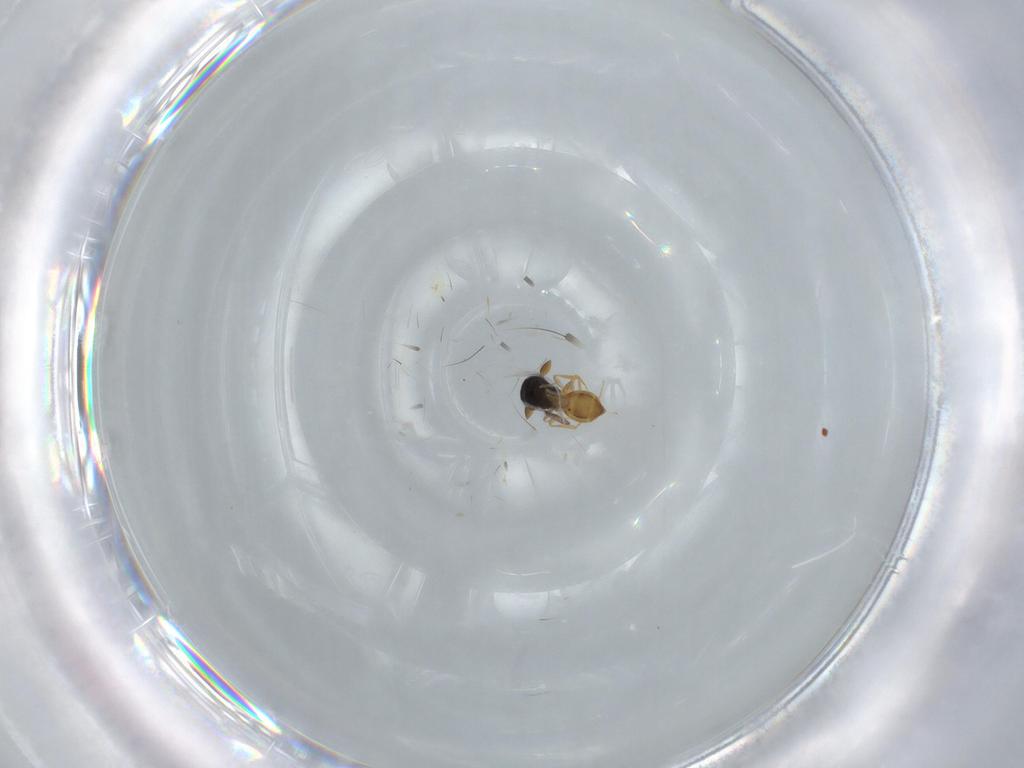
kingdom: Animalia
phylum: Arthropoda
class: Insecta
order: Hymenoptera
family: Scelionidae
